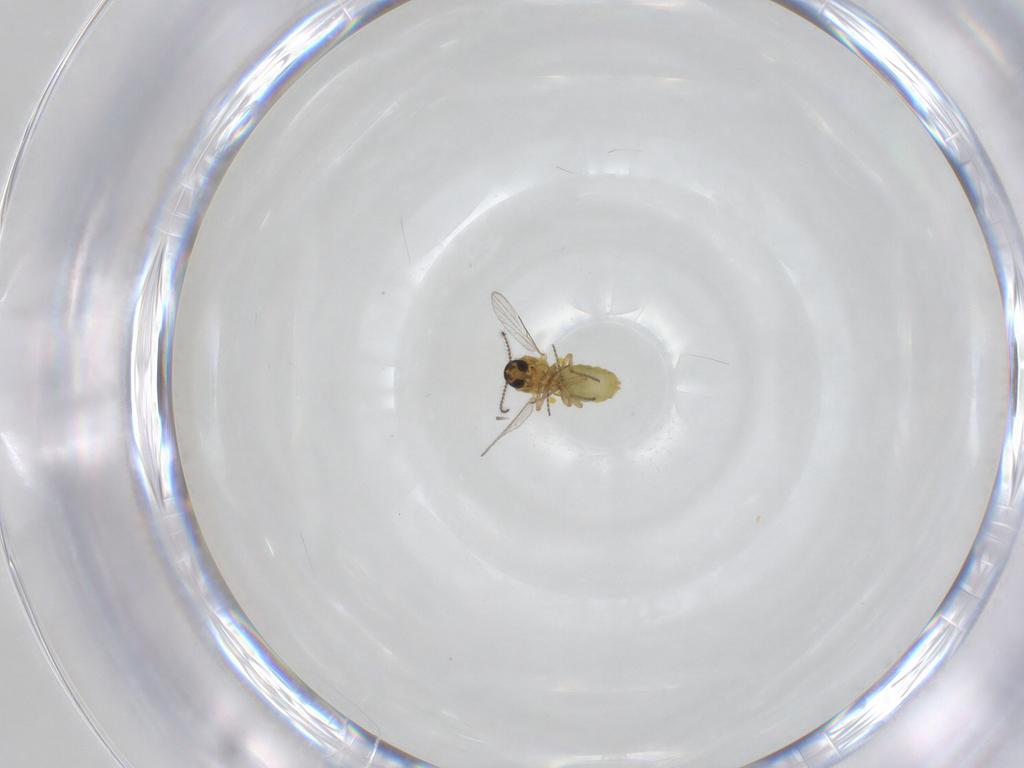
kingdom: Animalia
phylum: Arthropoda
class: Insecta
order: Diptera
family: Ceratopogonidae
